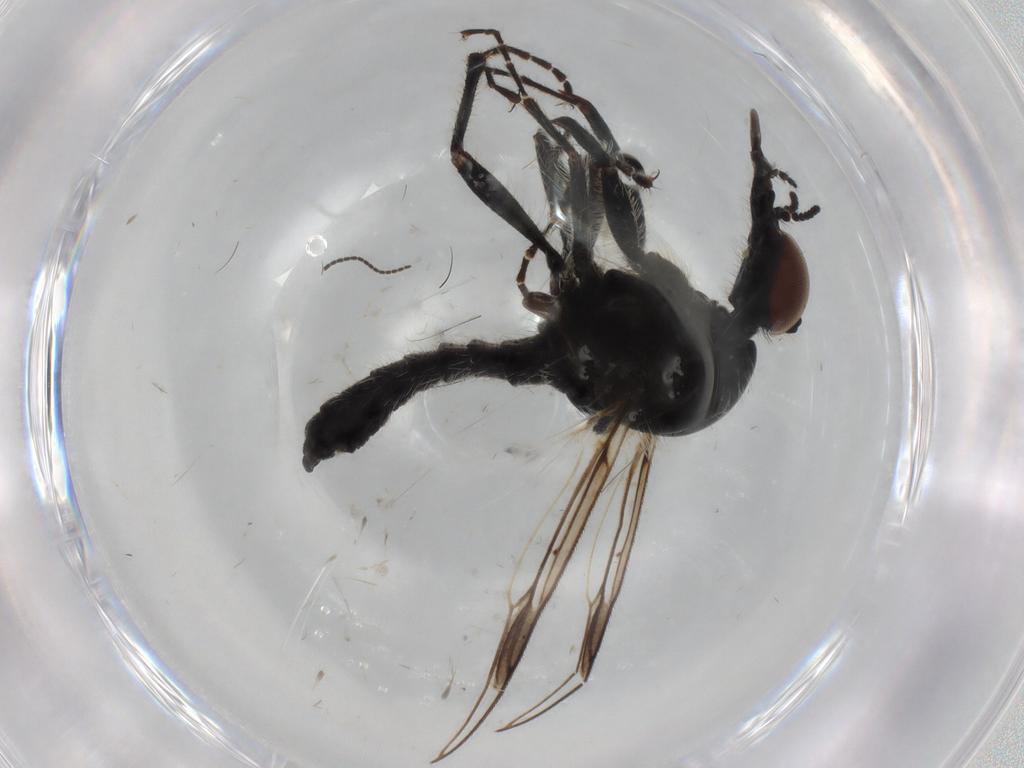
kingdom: Animalia
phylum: Arthropoda
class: Insecta
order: Diptera
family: Bibionidae
